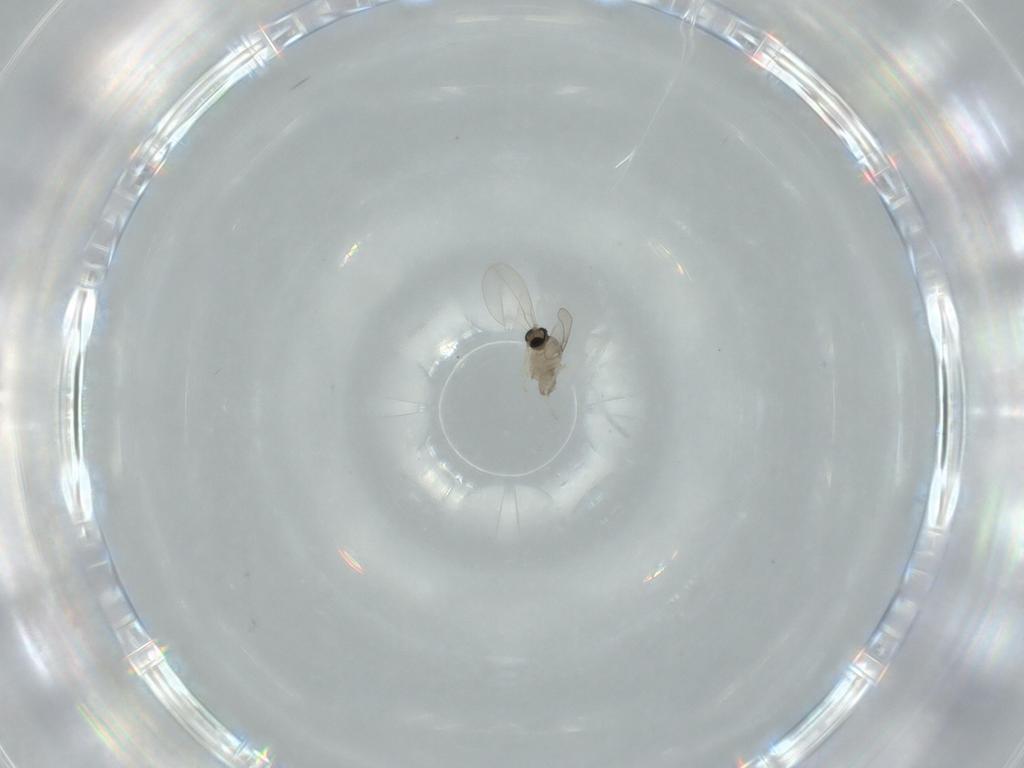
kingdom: Animalia
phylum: Arthropoda
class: Insecta
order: Diptera
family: Cecidomyiidae
